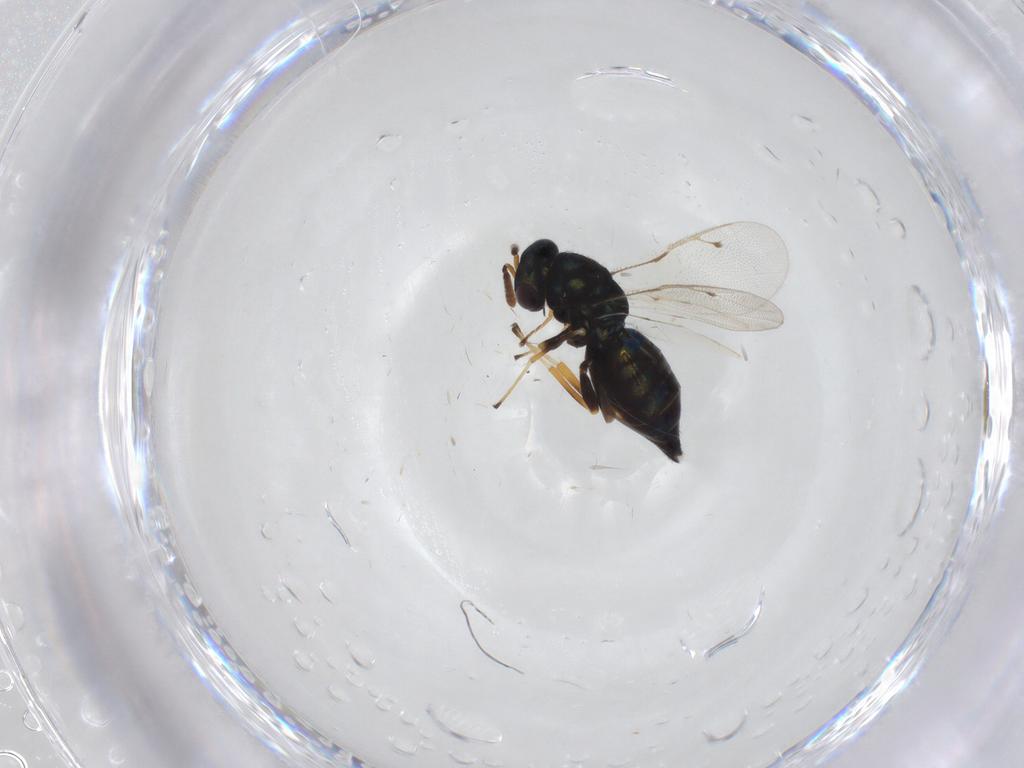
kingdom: Animalia
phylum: Arthropoda
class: Insecta
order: Hymenoptera
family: Pteromalidae
